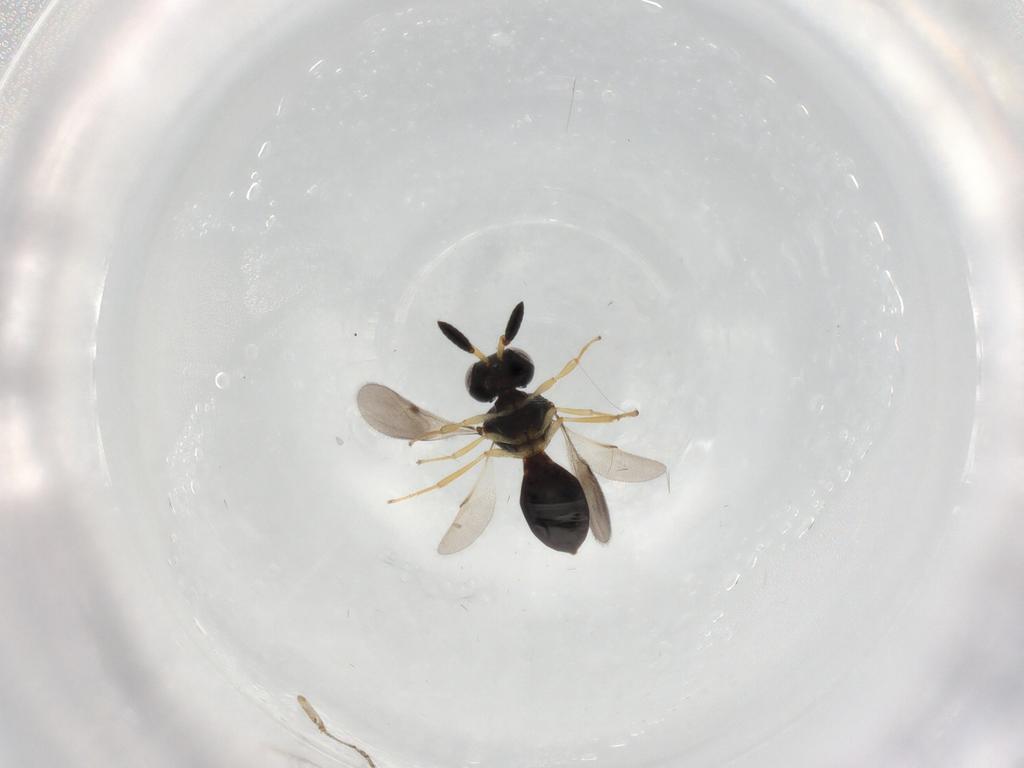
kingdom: Animalia
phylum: Arthropoda
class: Insecta
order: Hymenoptera
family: Scelionidae
